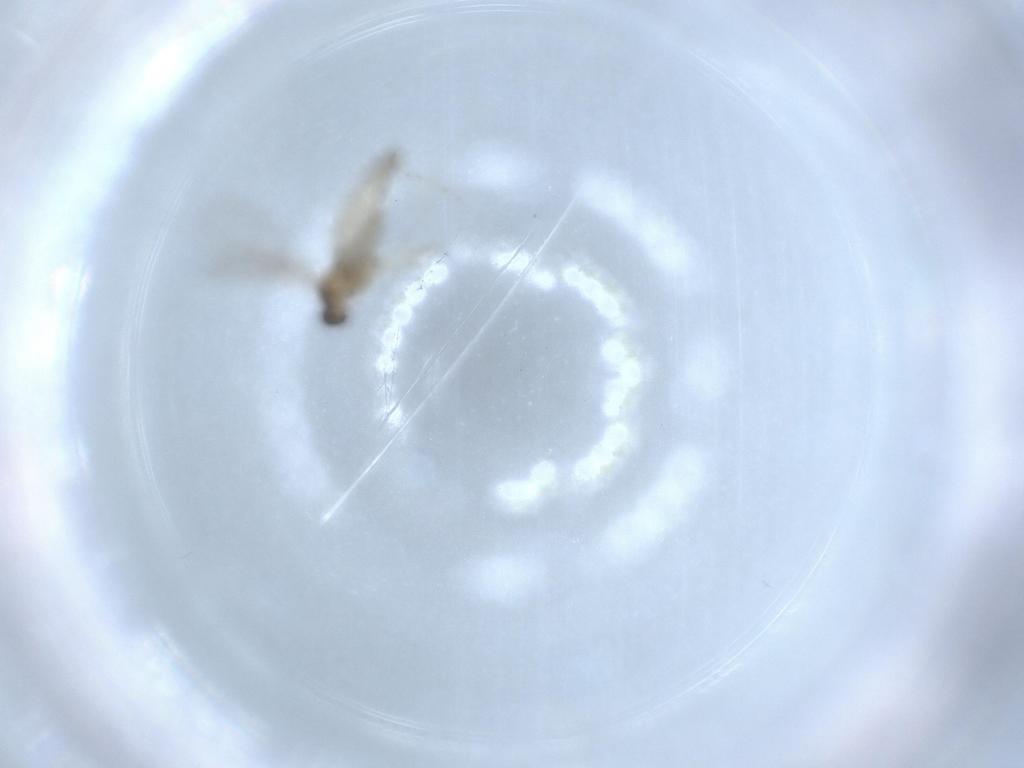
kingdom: Animalia
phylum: Arthropoda
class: Insecta
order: Diptera
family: Cecidomyiidae
